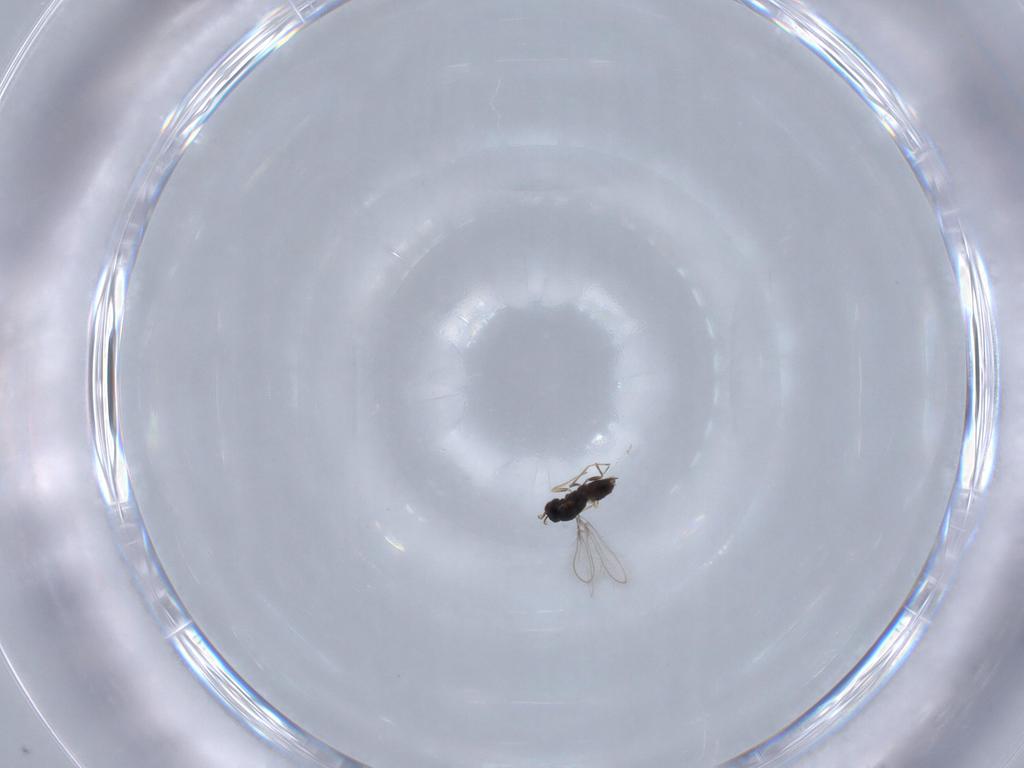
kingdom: Animalia
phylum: Arthropoda
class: Insecta
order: Hymenoptera
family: Mymaridae
